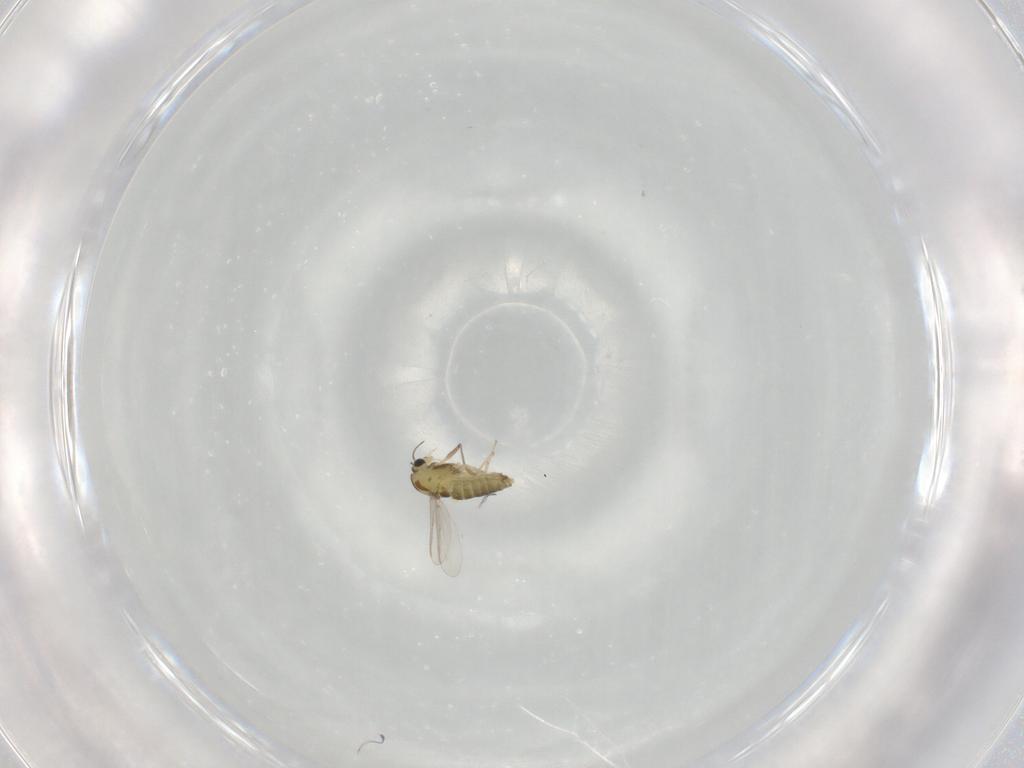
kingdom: Animalia
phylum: Arthropoda
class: Insecta
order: Diptera
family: Chironomidae
